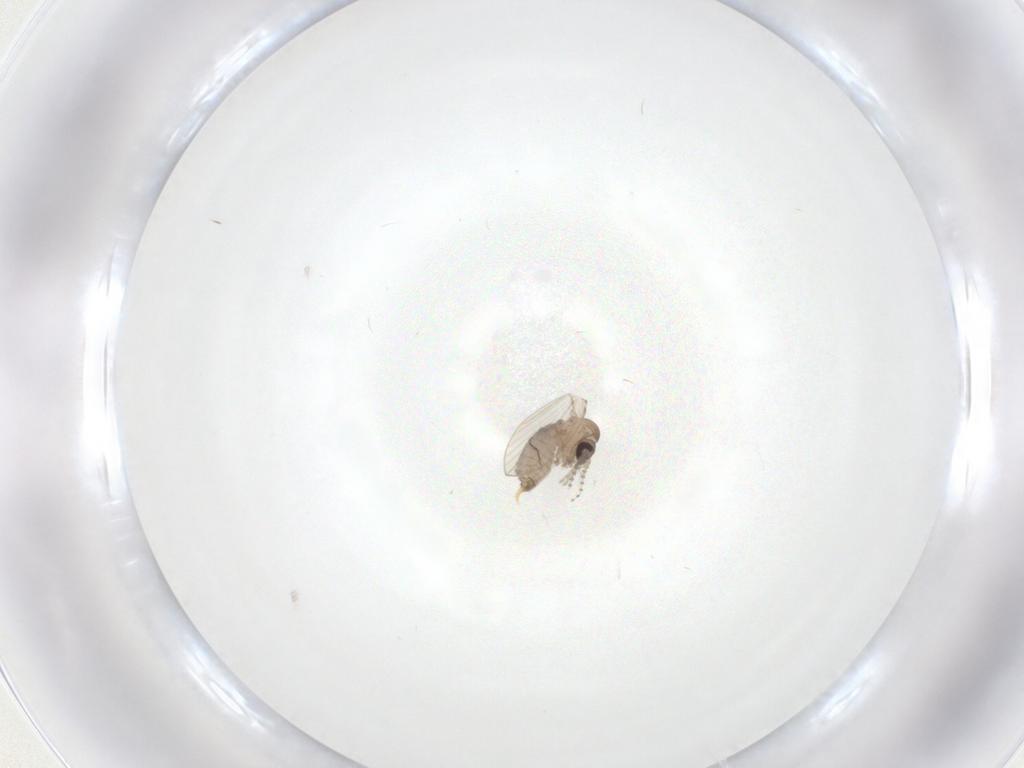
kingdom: Animalia
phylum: Arthropoda
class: Insecta
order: Diptera
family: Psychodidae
